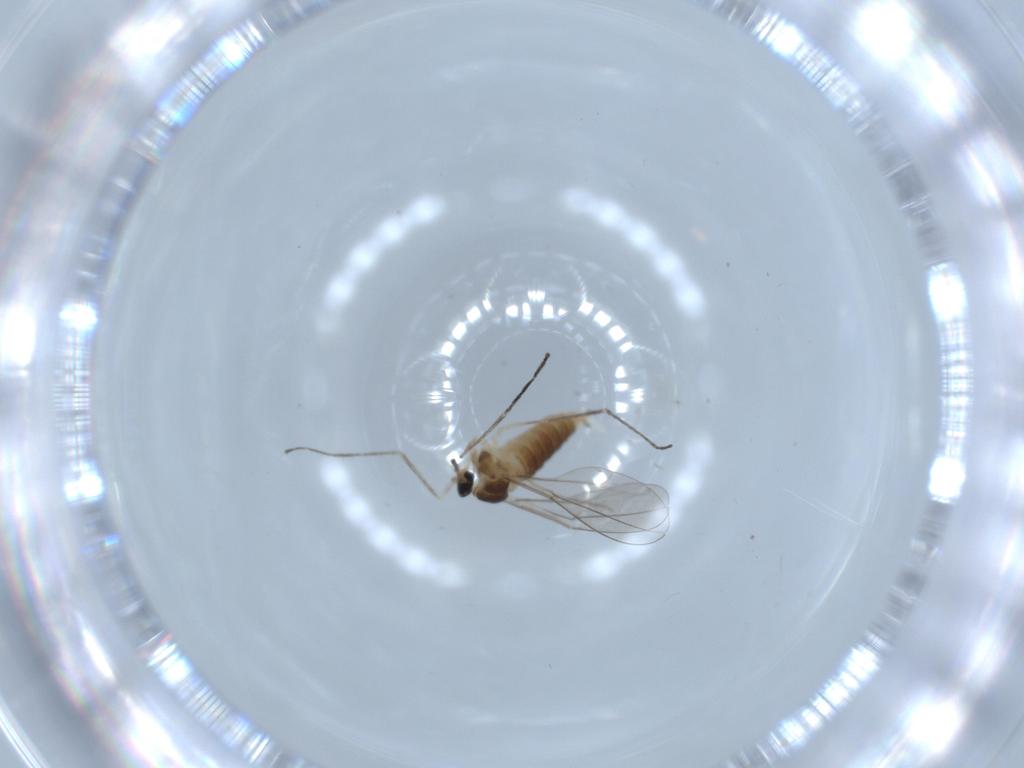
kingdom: Animalia
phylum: Arthropoda
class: Insecta
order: Diptera
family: Cecidomyiidae
